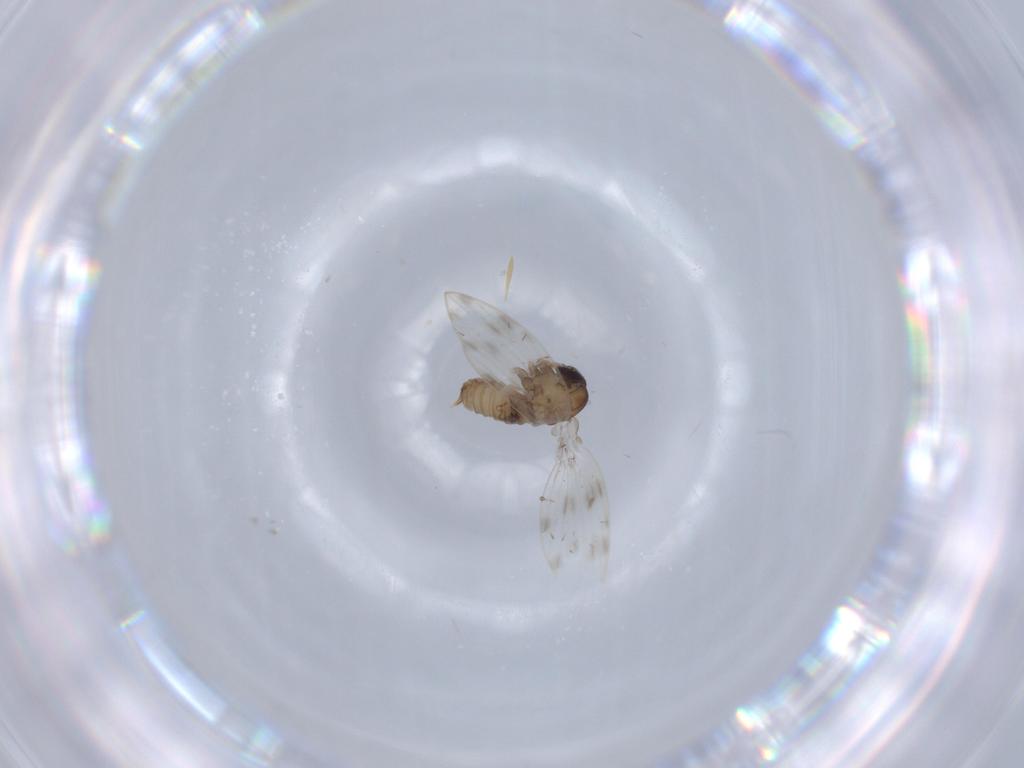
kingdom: Animalia
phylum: Arthropoda
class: Insecta
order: Diptera
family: Ceratopogonidae
